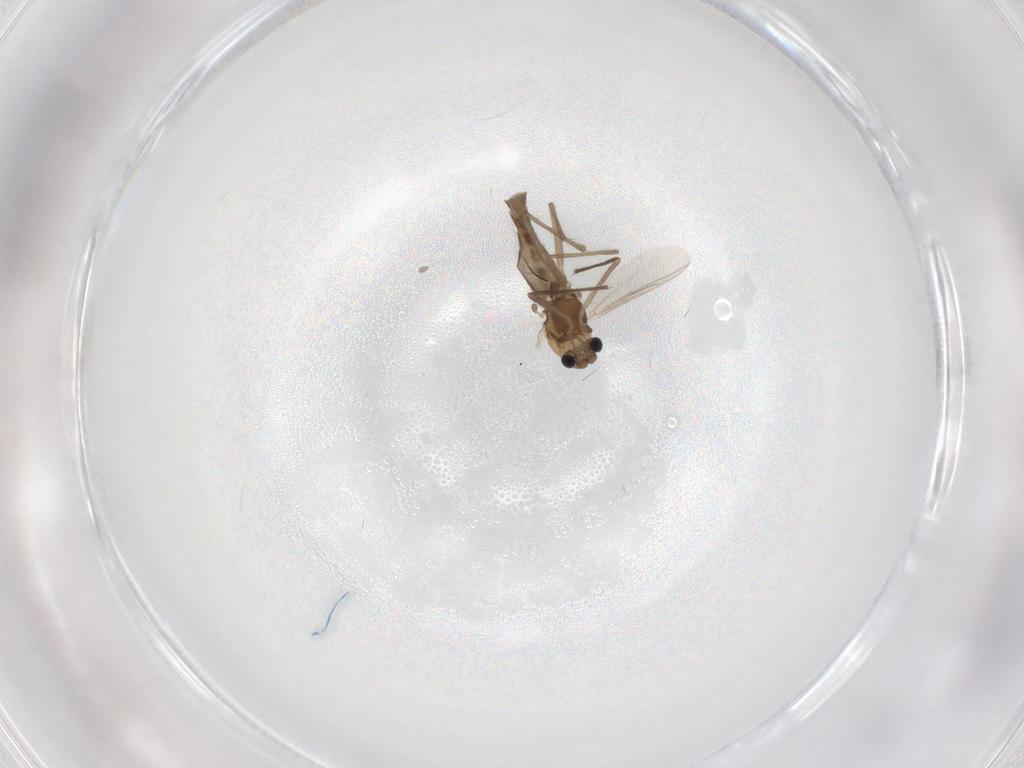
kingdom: Animalia
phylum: Arthropoda
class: Insecta
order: Diptera
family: Chironomidae
